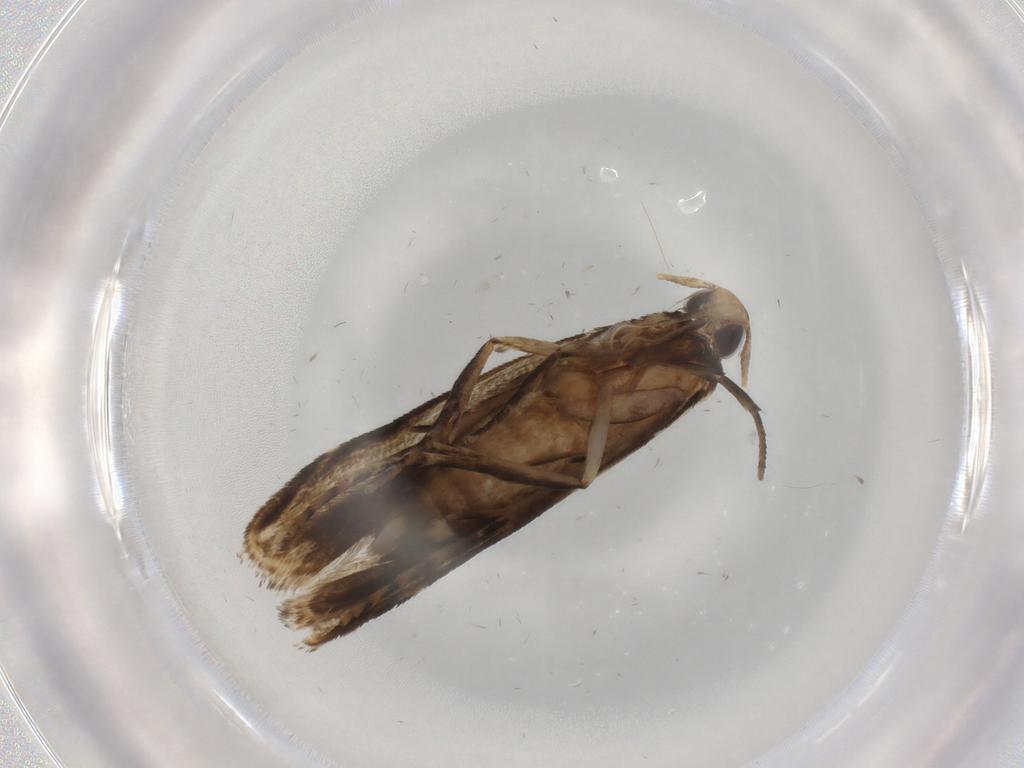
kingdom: Animalia
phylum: Arthropoda
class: Insecta
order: Lepidoptera
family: Gelechiidae
